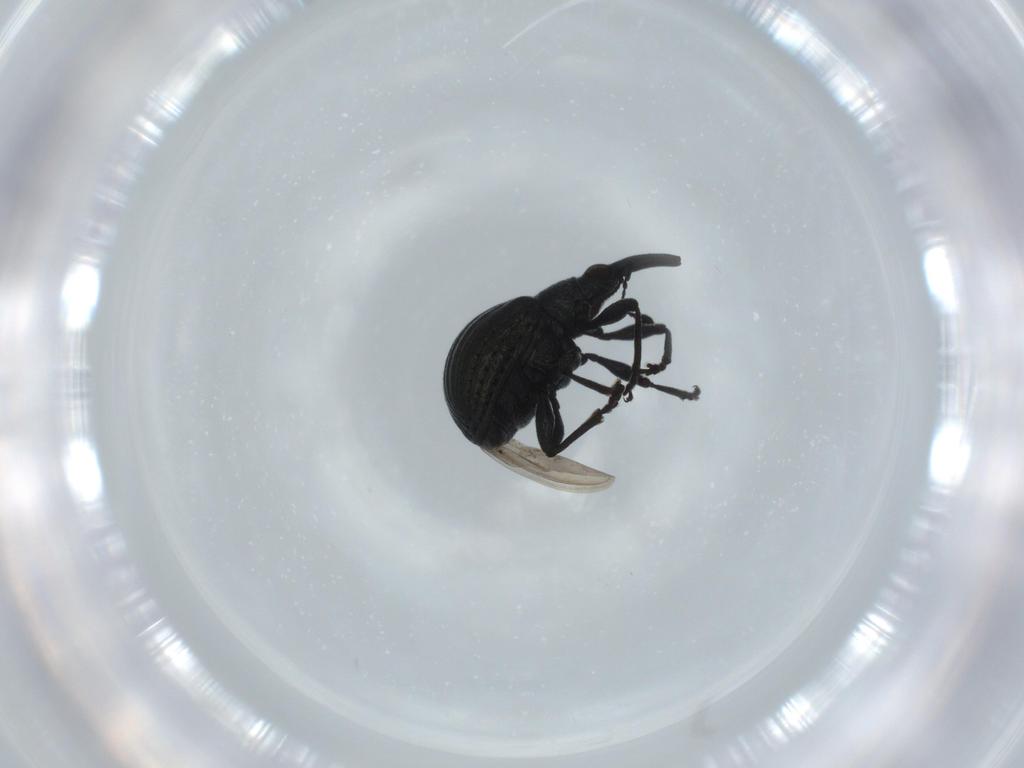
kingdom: Animalia
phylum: Arthropoda
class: Insecta
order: Coleoptera
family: Brentidae
